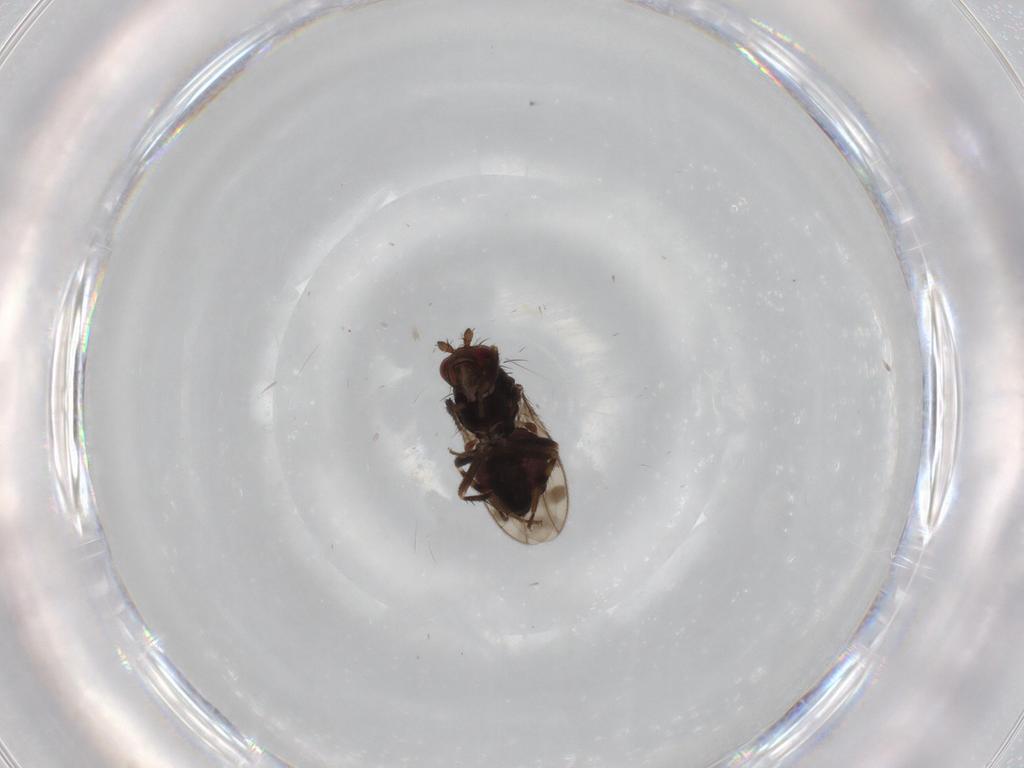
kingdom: Animalia
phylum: Arthropoda
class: Insecta
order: Diptera
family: Sphaeroceridae
